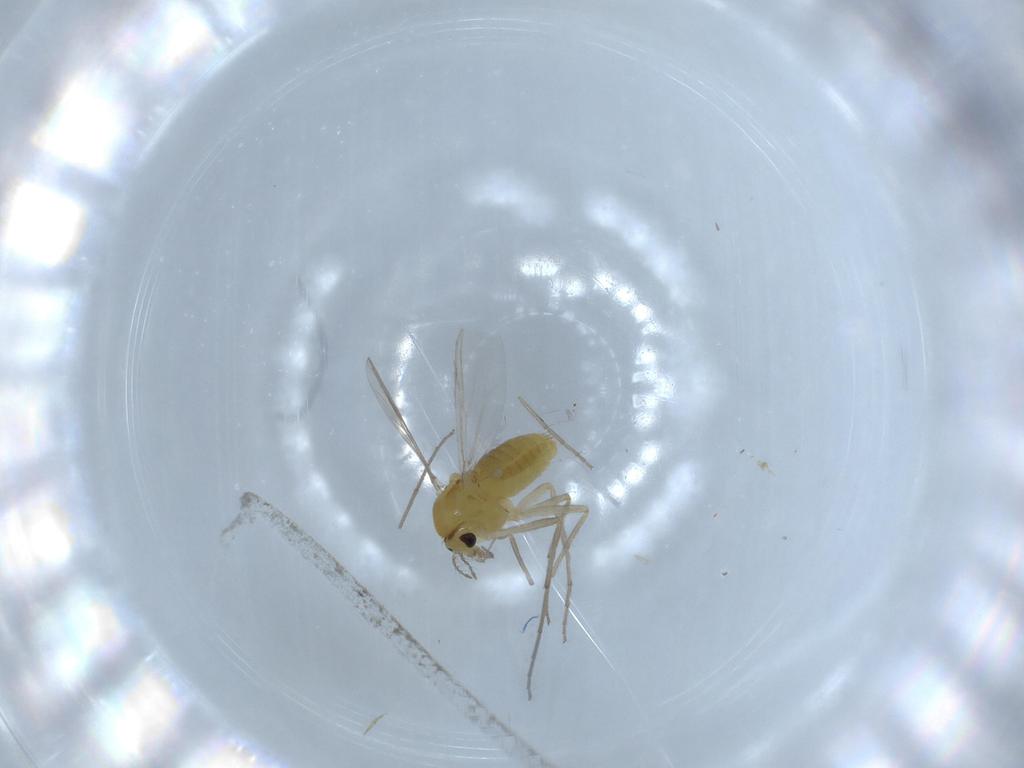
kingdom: Animalia
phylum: Arthropoda
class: Insecta
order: Diptera
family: Chironomidae
